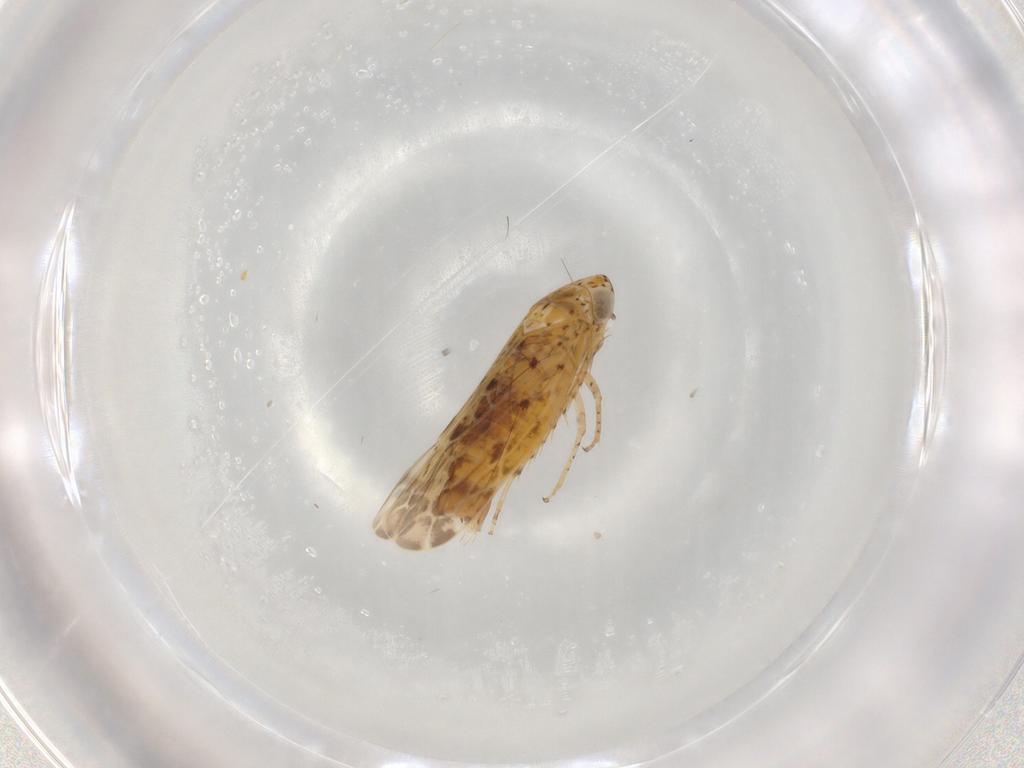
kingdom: Animalia
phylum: Arthropoda
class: Insecta
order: Hemiptera
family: Cicadellidae
